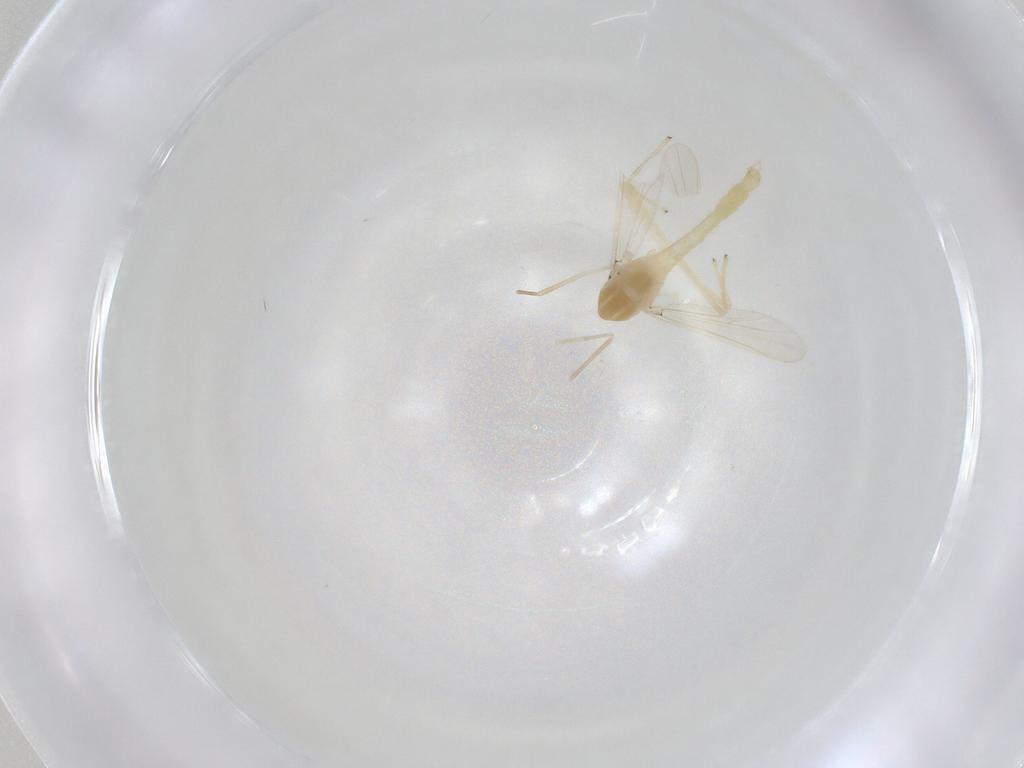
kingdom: Animalia
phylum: Arthropoda
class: Insecta
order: Diptera
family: Chironomidae
